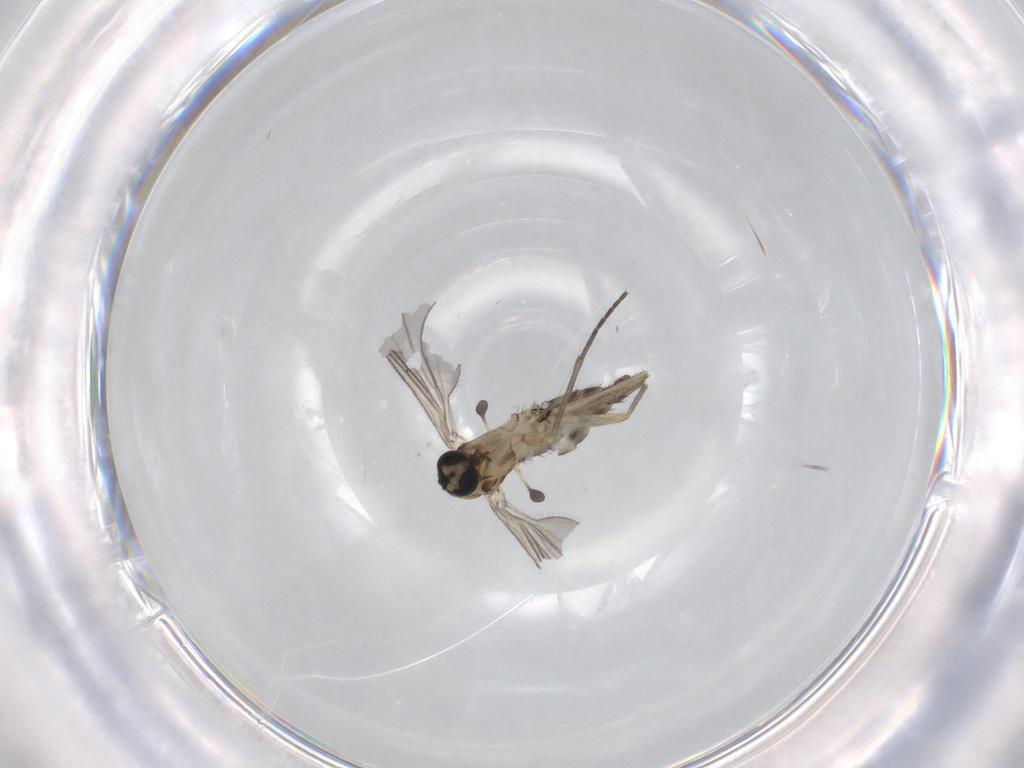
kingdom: Animalia
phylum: Arthropoda
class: Insecta
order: Diptera
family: Sciaridae
